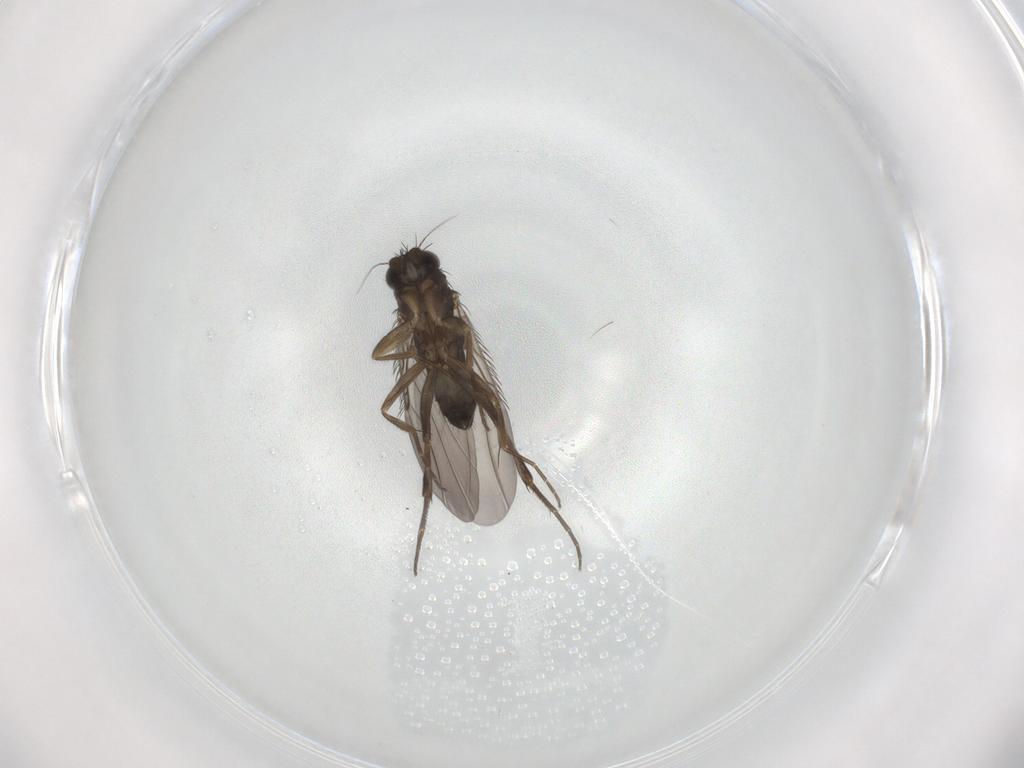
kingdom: Animalia
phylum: Arthropoda
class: Insecta
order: Diptera
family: Phoridae
